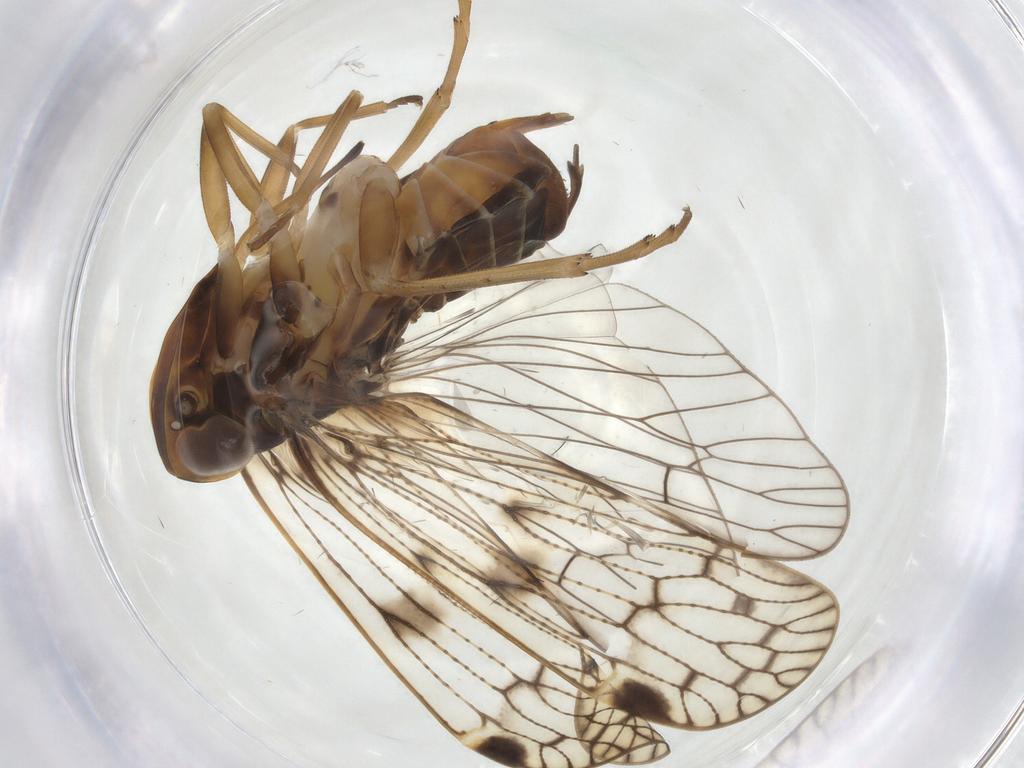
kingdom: Animalia
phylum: Arthropoda
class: Insecta
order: Hemiptera
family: Cixiidae
